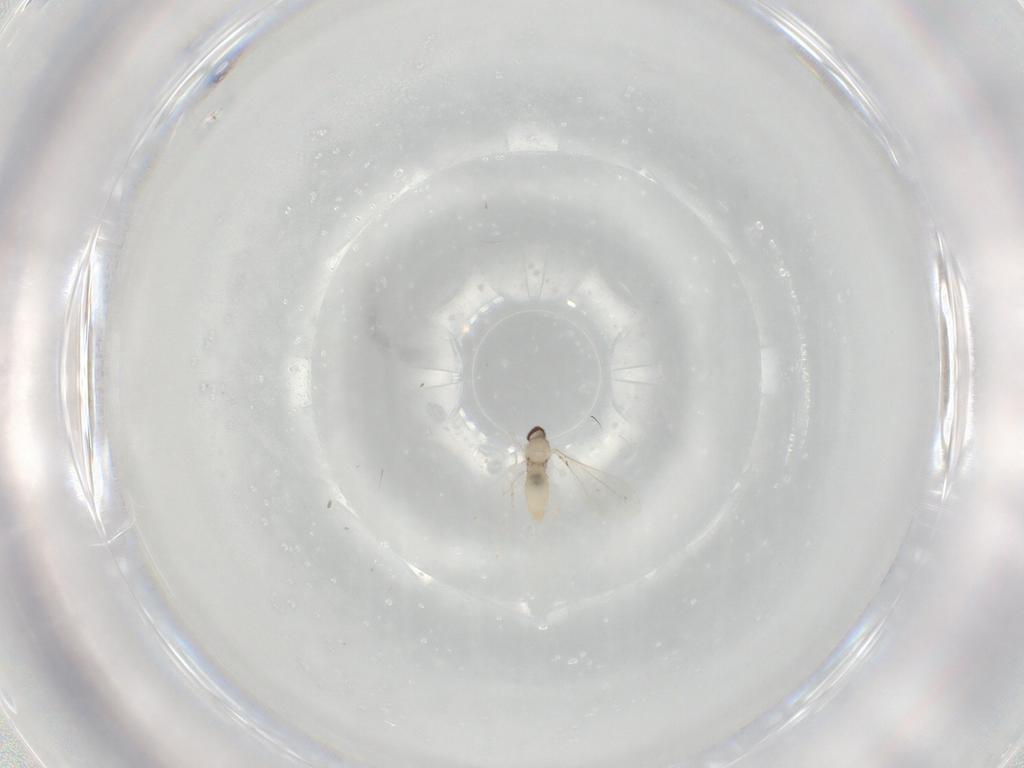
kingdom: Animalia
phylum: Arthropoda
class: Insecta
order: Diptera
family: Cecidomyiidae
